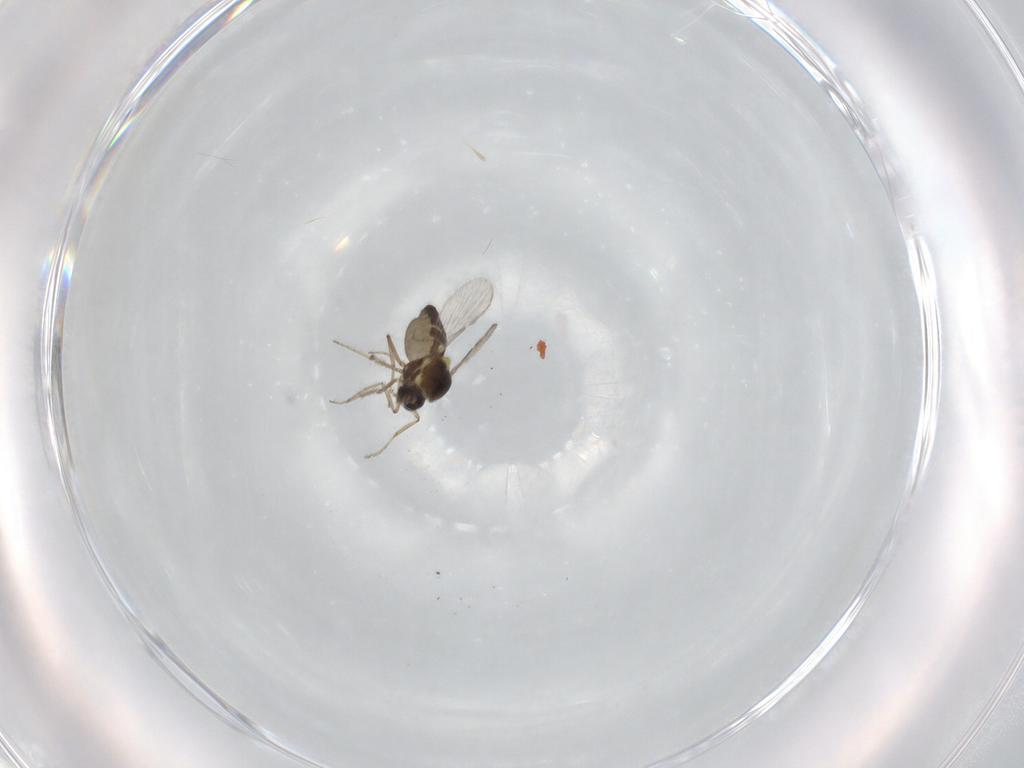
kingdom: Animalia
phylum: Arthropoda
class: Insecta
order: Diptera
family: Ceratopogonidae
